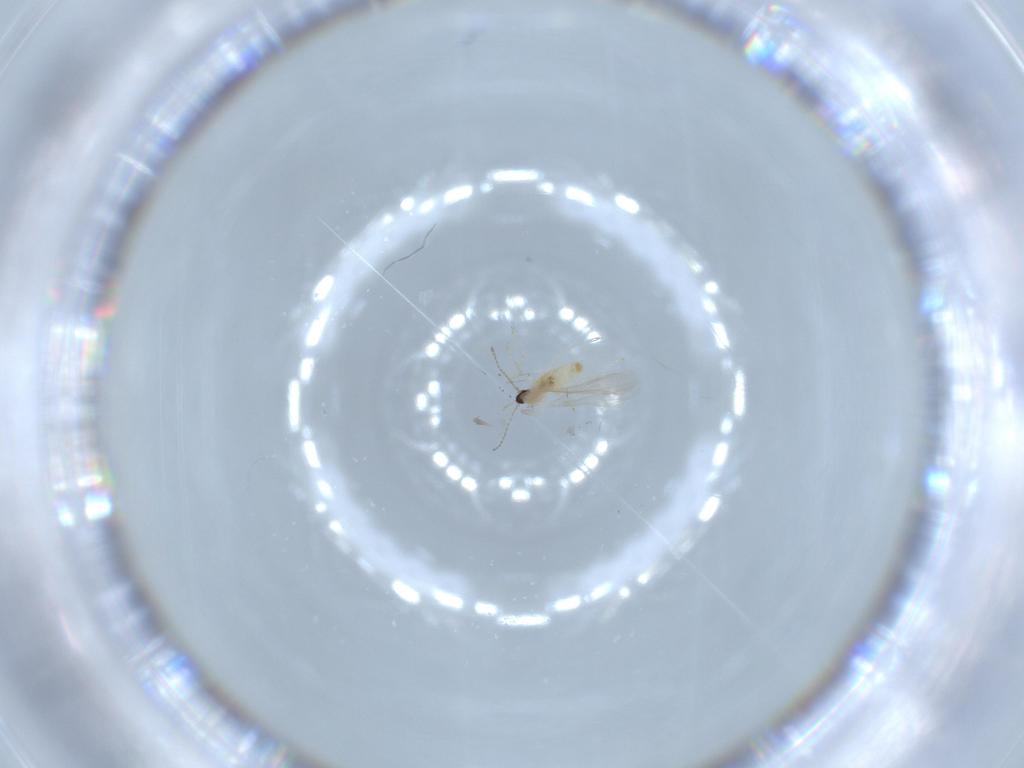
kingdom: Animalia
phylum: Arthropoda
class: Insecta
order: Diptera
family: Cecidomyiidae
